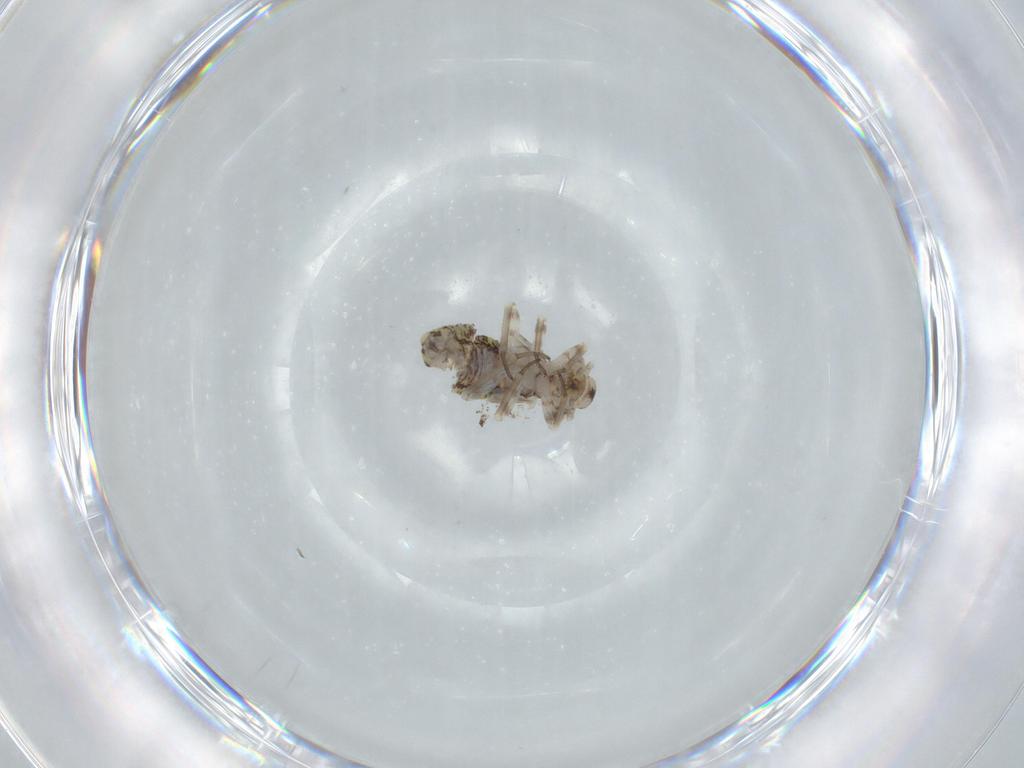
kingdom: Animalia
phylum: Arthropoda
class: Insecta
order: Psocodea
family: Psocidae
